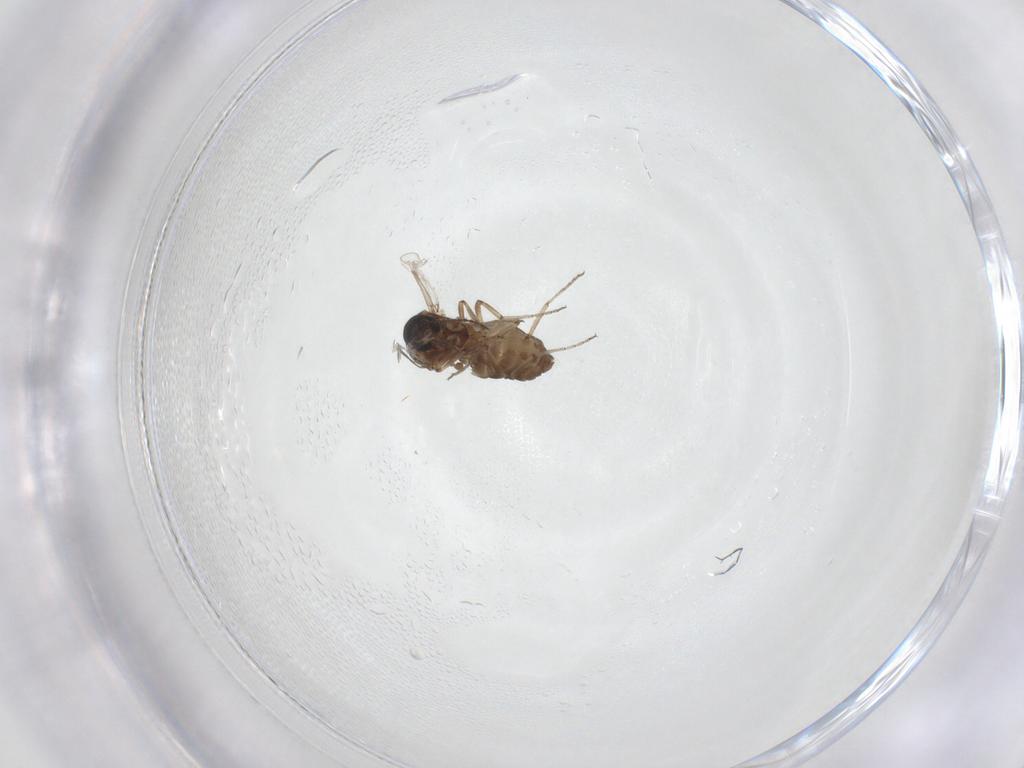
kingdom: Animalia
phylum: Arthropoda
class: Insecta
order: Diptera
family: Ceratopogonidae
